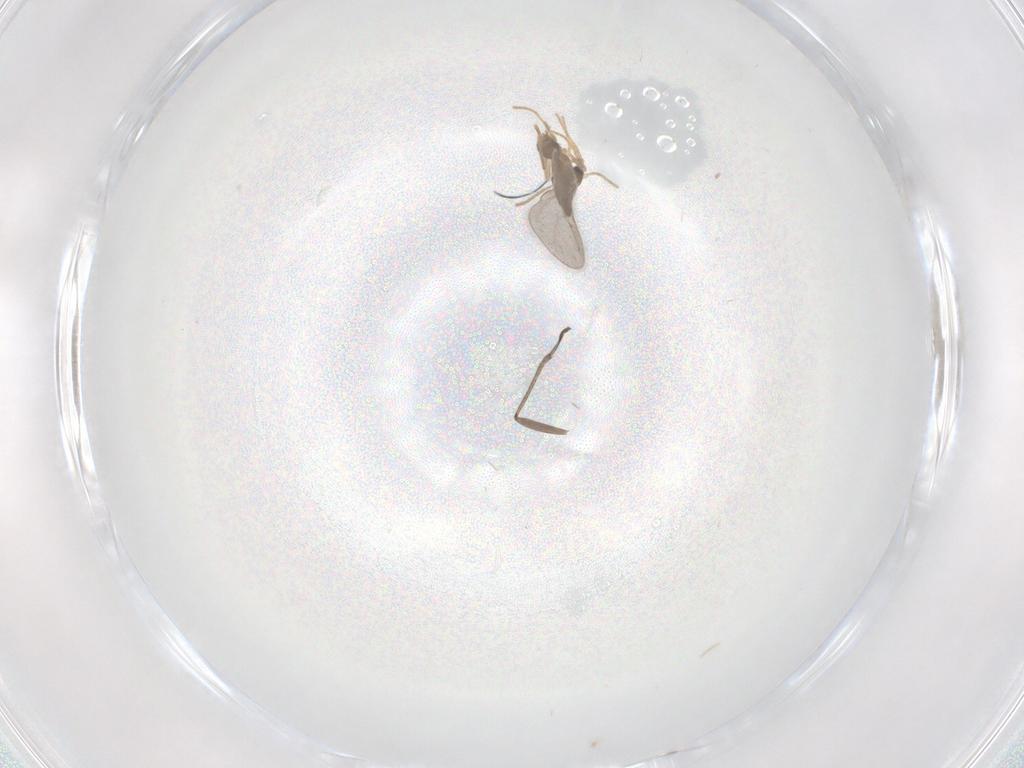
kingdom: Animalia
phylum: Arthropoda
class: Insecta
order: Hymenoptera
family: Formicidae
